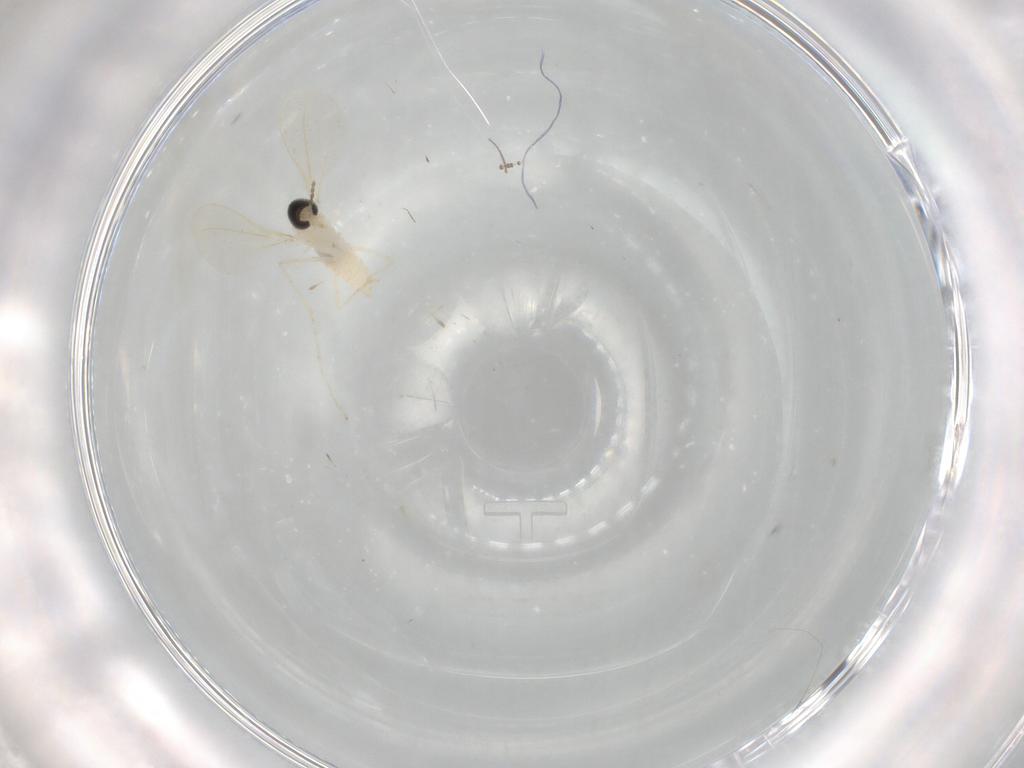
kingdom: Animalia
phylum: Arthropoda
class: Insecta
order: Diptera
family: Cecidomyiidae
